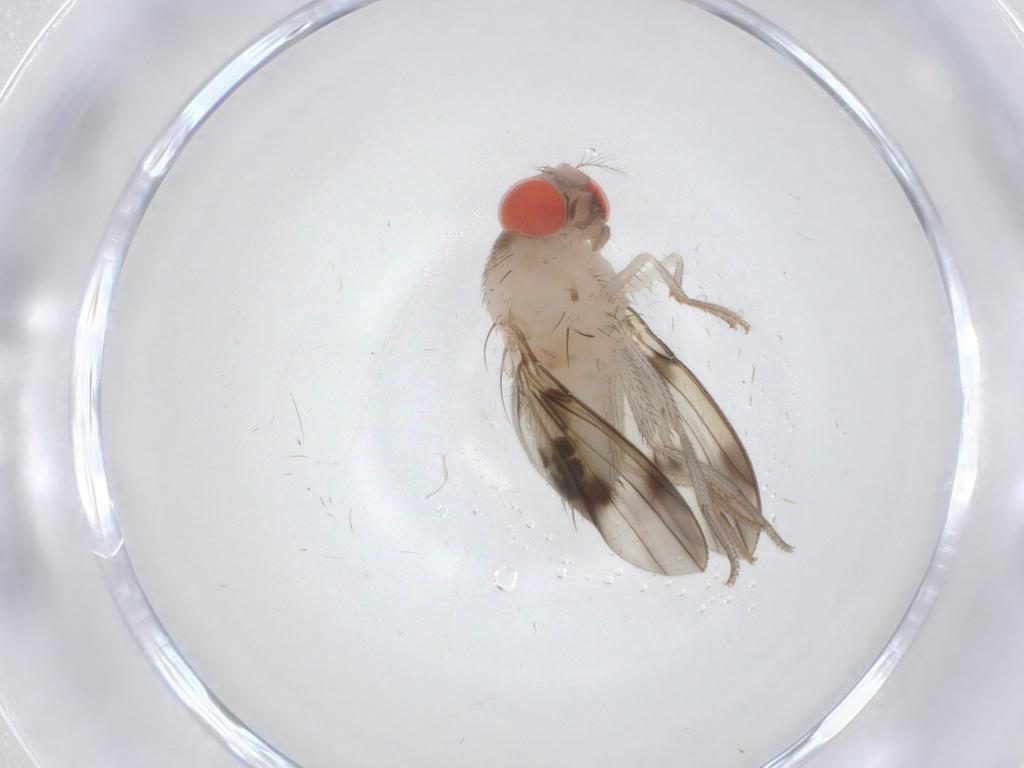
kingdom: Animalia
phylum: Arthropoda
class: Insecta
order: Diptera
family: Drosophilidae
